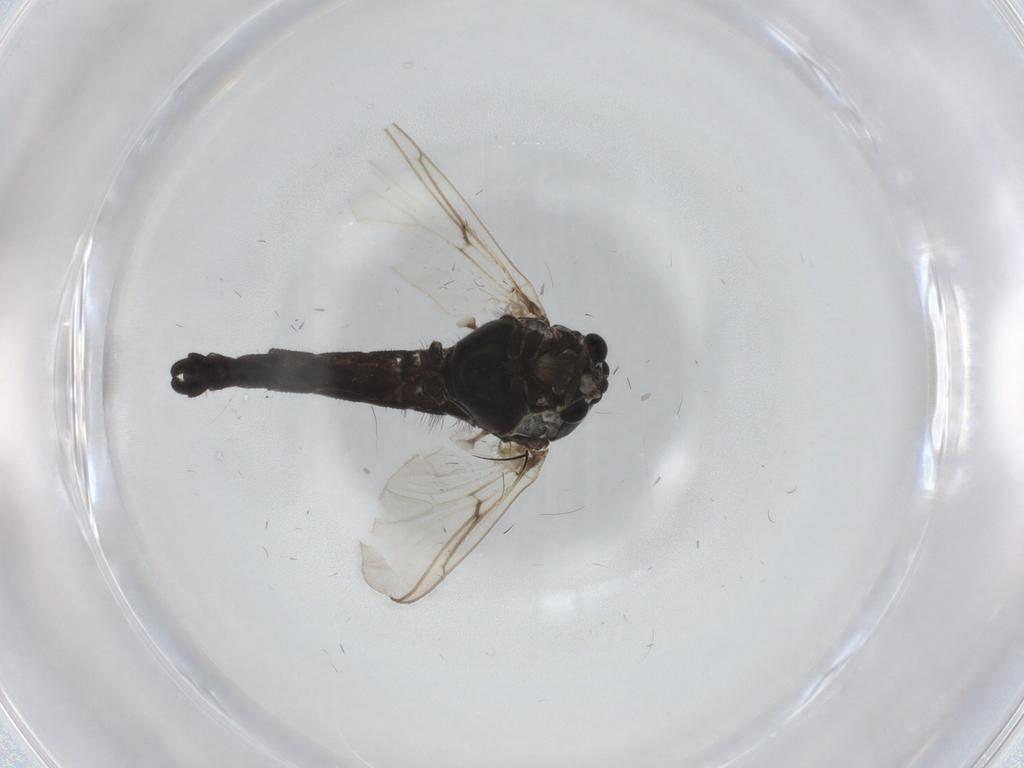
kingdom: Animalia
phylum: Arthropoda
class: Insecta
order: Diptera
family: Chironomidae
